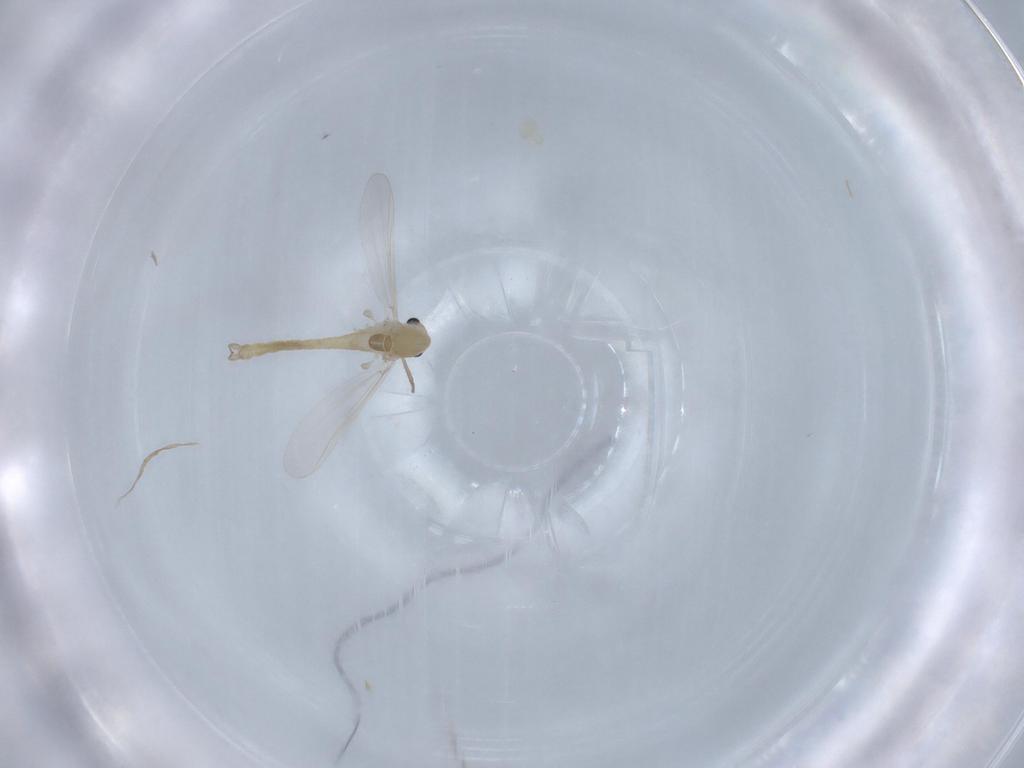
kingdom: Animalia
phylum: Arthropoda
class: Insecta
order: Diptera
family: Chironomidae
